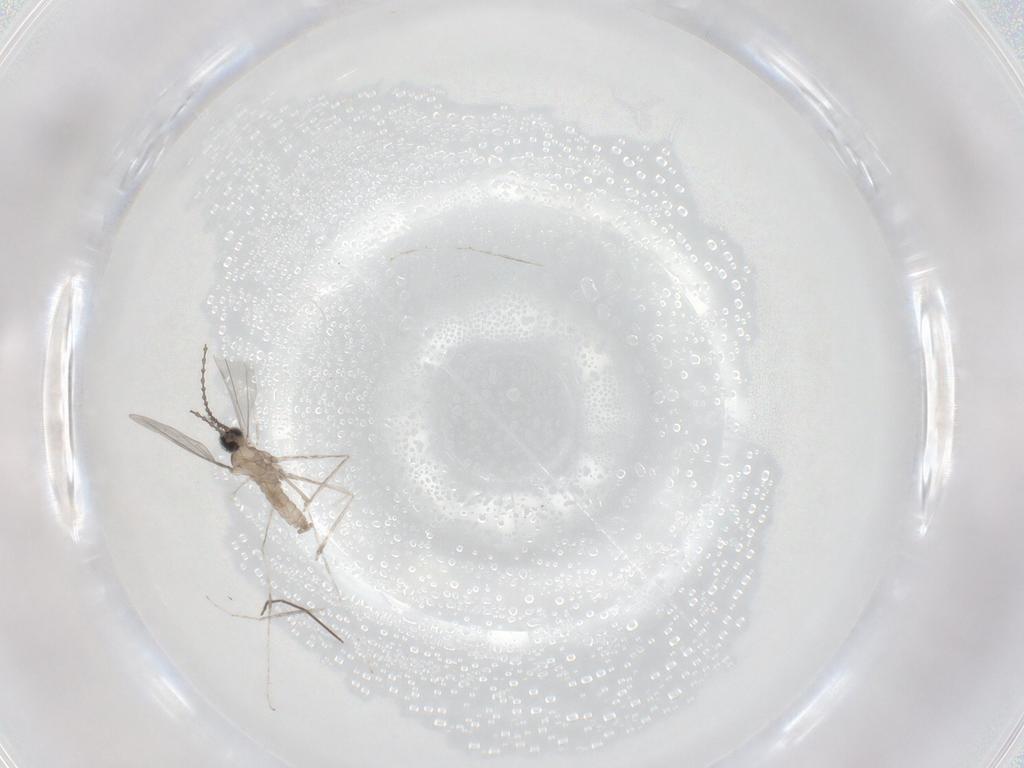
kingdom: Animalia
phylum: Arthropoda
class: Insecta
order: Diptera
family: Cecidomyiidae
